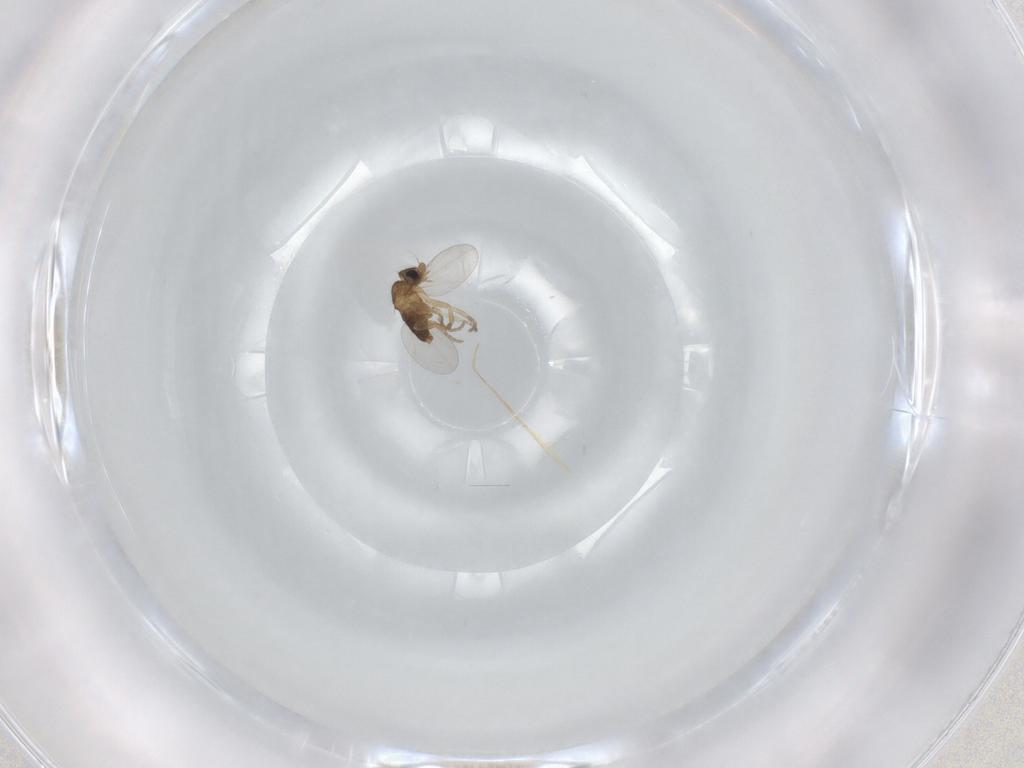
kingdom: Animalia
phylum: Arthropoda
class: Insecta
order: Diptera
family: Phoridae
